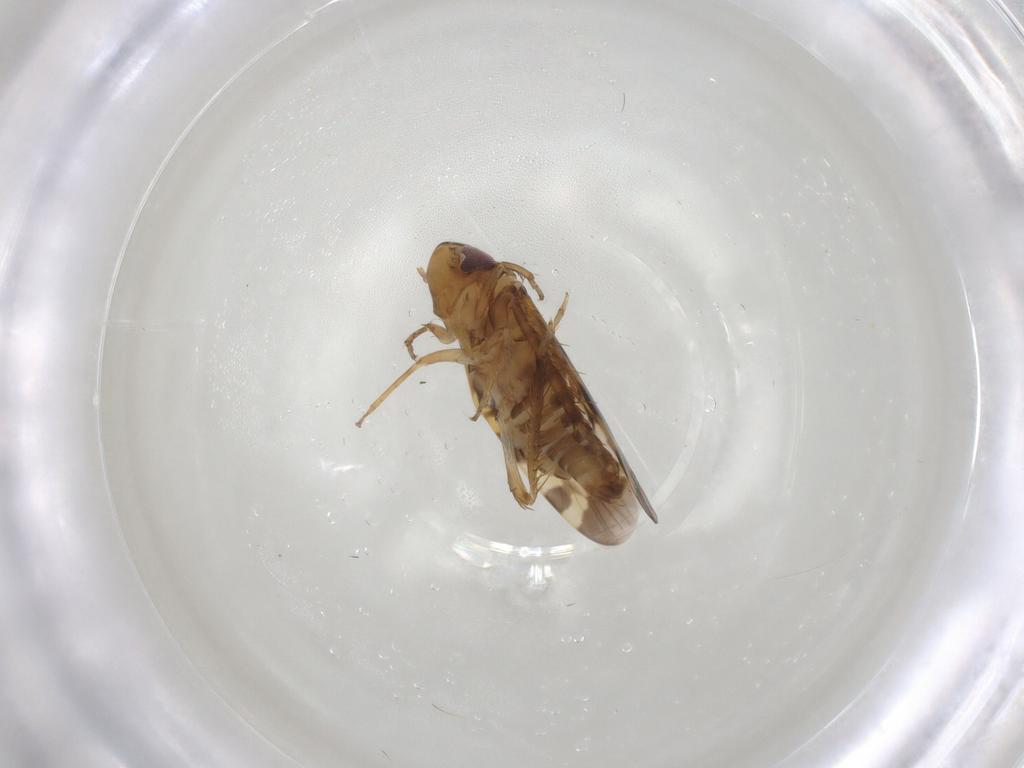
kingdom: Animalia
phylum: Arthropoda
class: Insecta
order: Hemiptera
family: Cicadellidae
